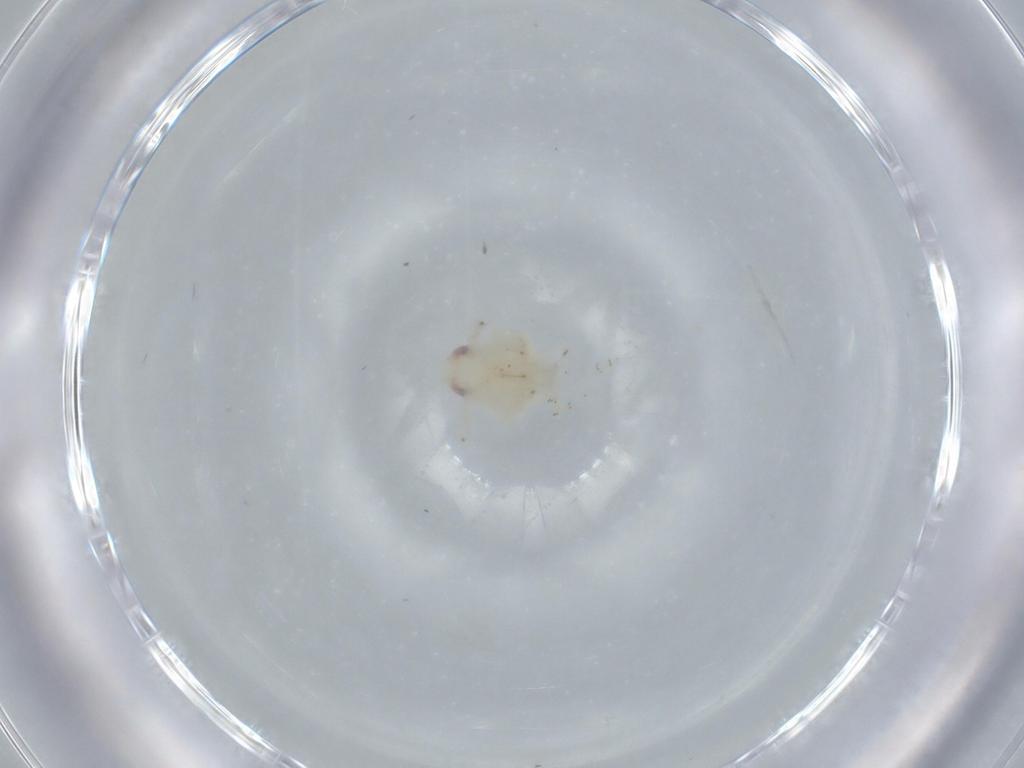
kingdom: Animalia
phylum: Arthropoda
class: Insecta
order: Hemiptera
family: Nogodinidae
